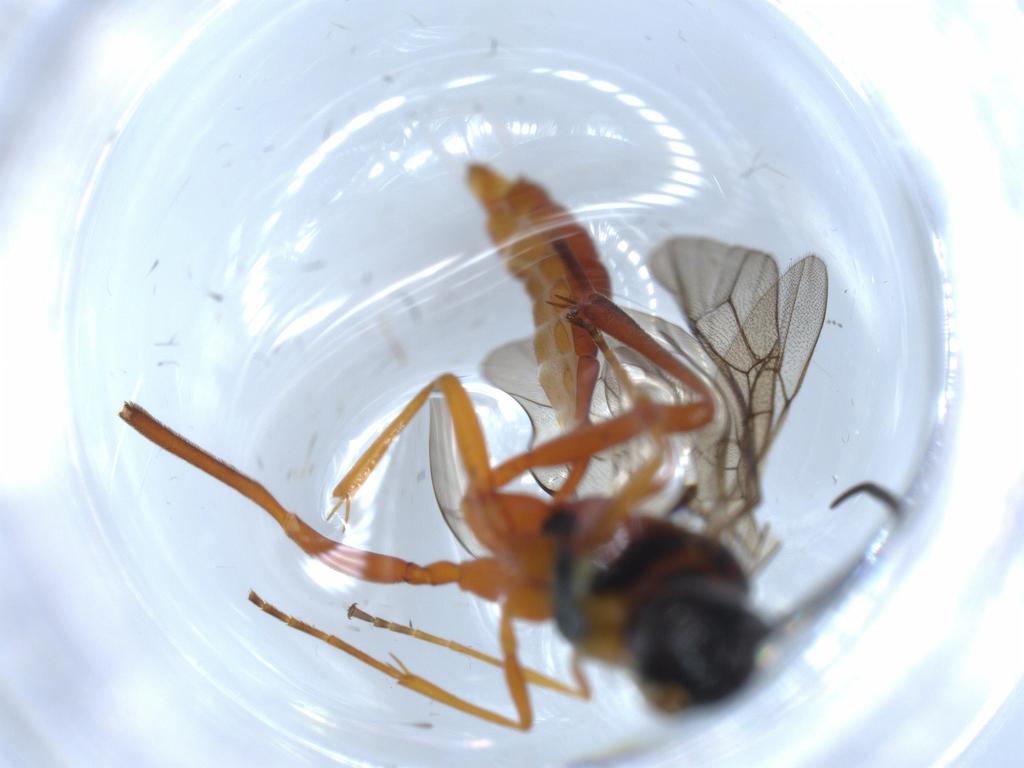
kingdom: Animalia
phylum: Arthropoda
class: Insecta
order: Hymenoptera
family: Ichneumonidae
